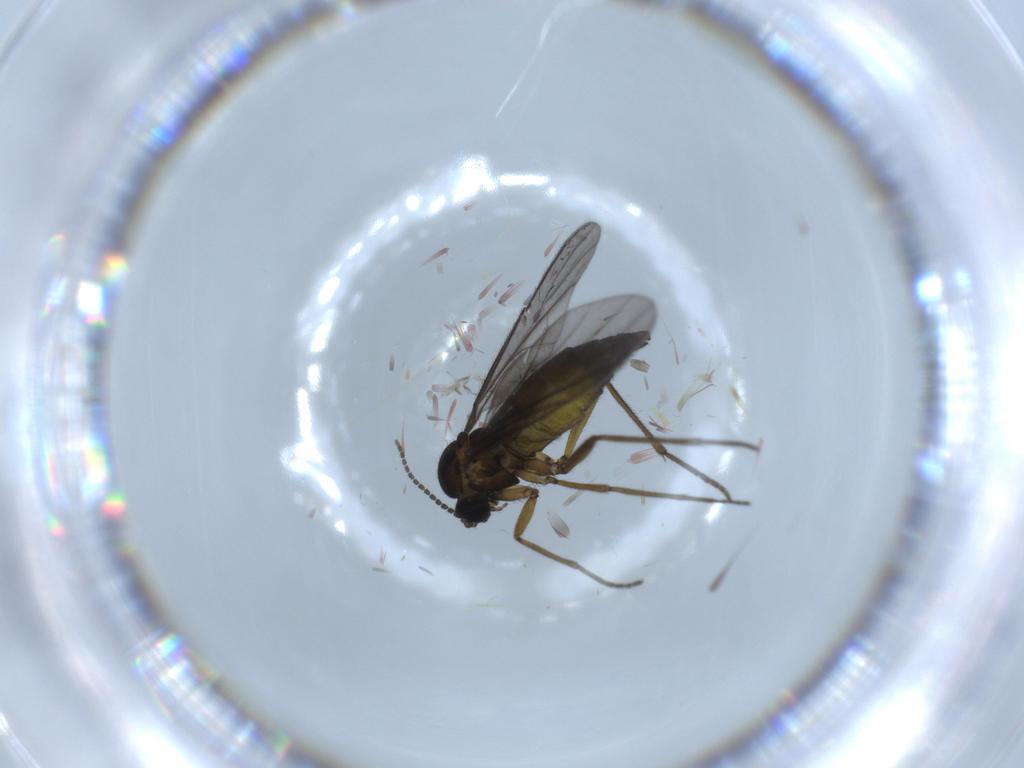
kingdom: Animalia
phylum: Arthropoda
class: Insecta
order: Diptera
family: Sciaridae
